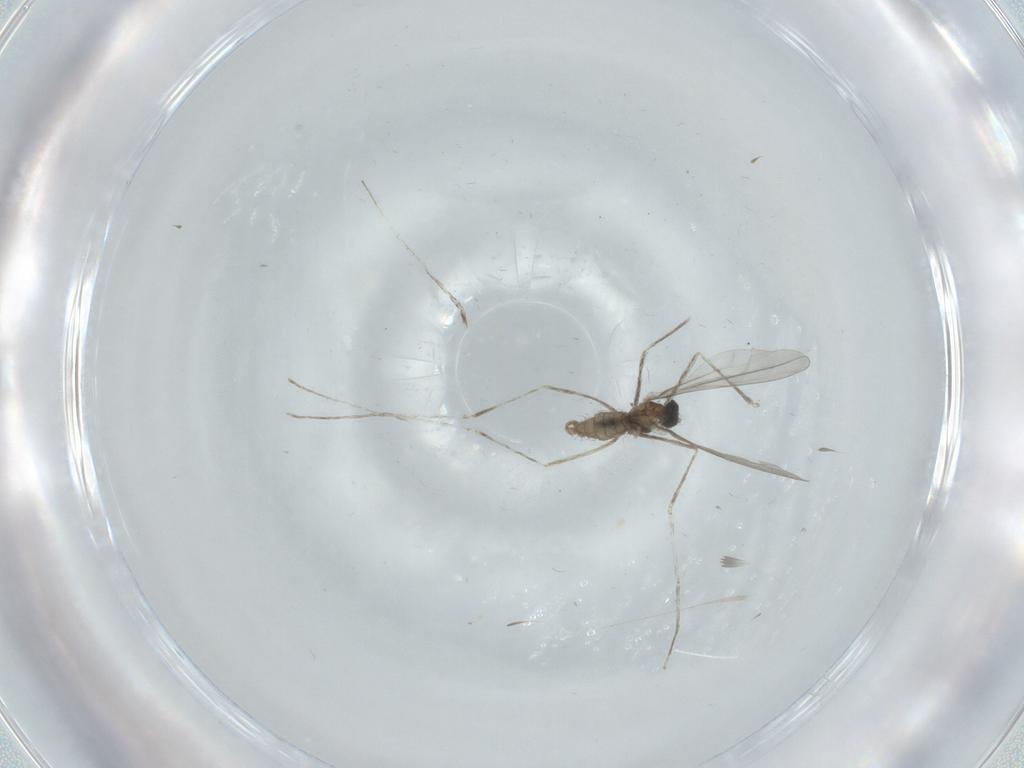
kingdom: Animalia
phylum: Arthropoda
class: Insecta
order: Diptera
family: Cecidomyiidae
